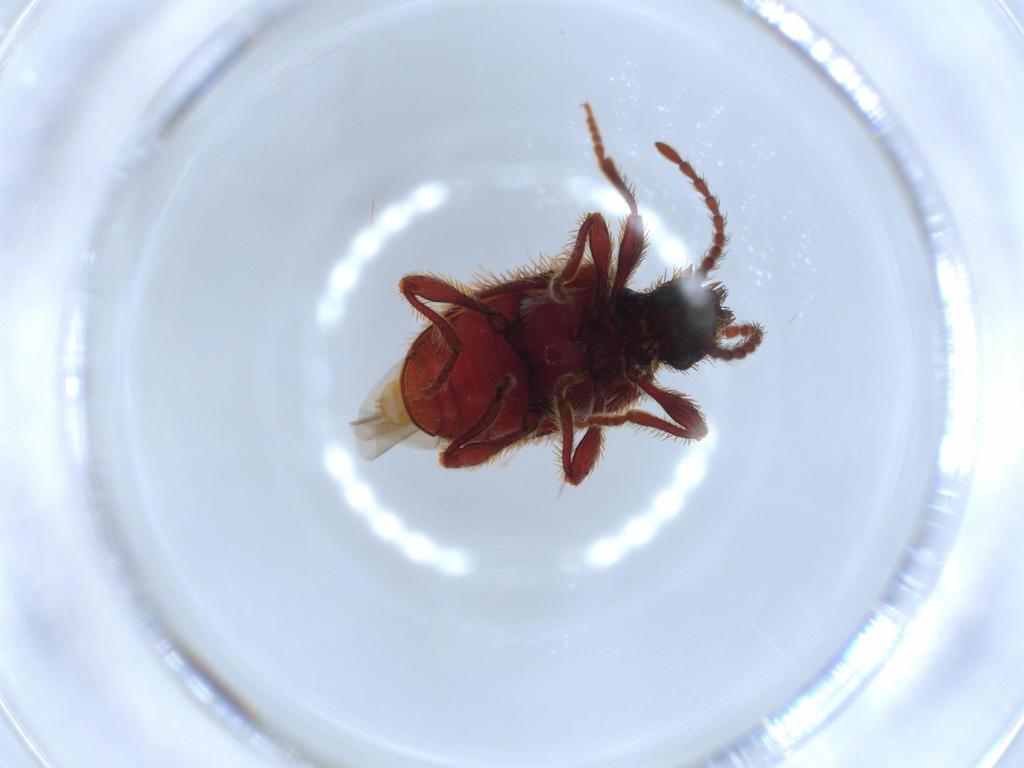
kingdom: Animalia
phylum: Arthropoda
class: Insecta
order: Coleoptera
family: Ptinidae
